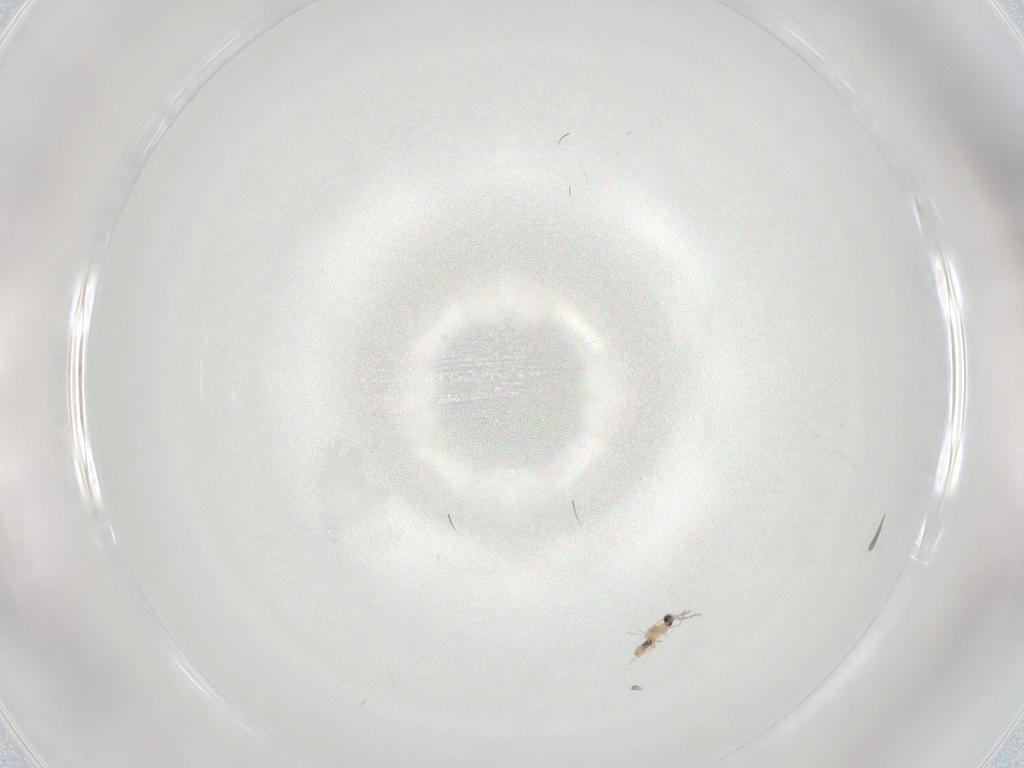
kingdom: Animalia
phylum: Arthropoda
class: Insecta
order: Diptera
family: Cecidomyiidae
